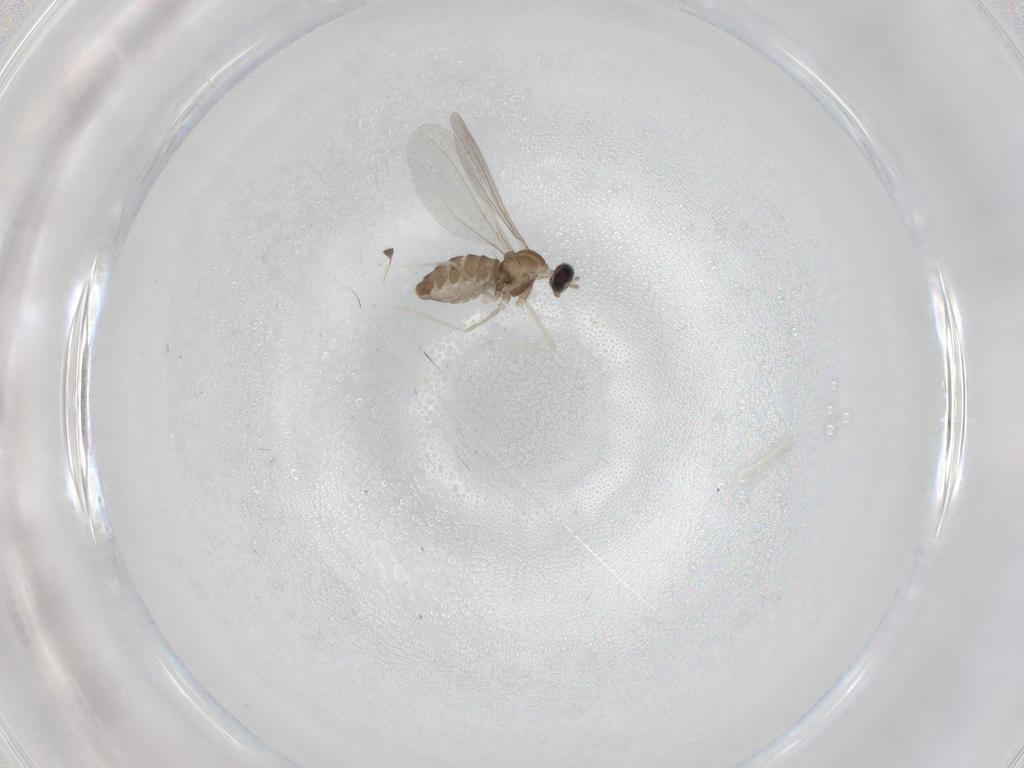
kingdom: Animalia
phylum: Arthropoda
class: Insecta
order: Diptera
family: Cecidomyiidae
